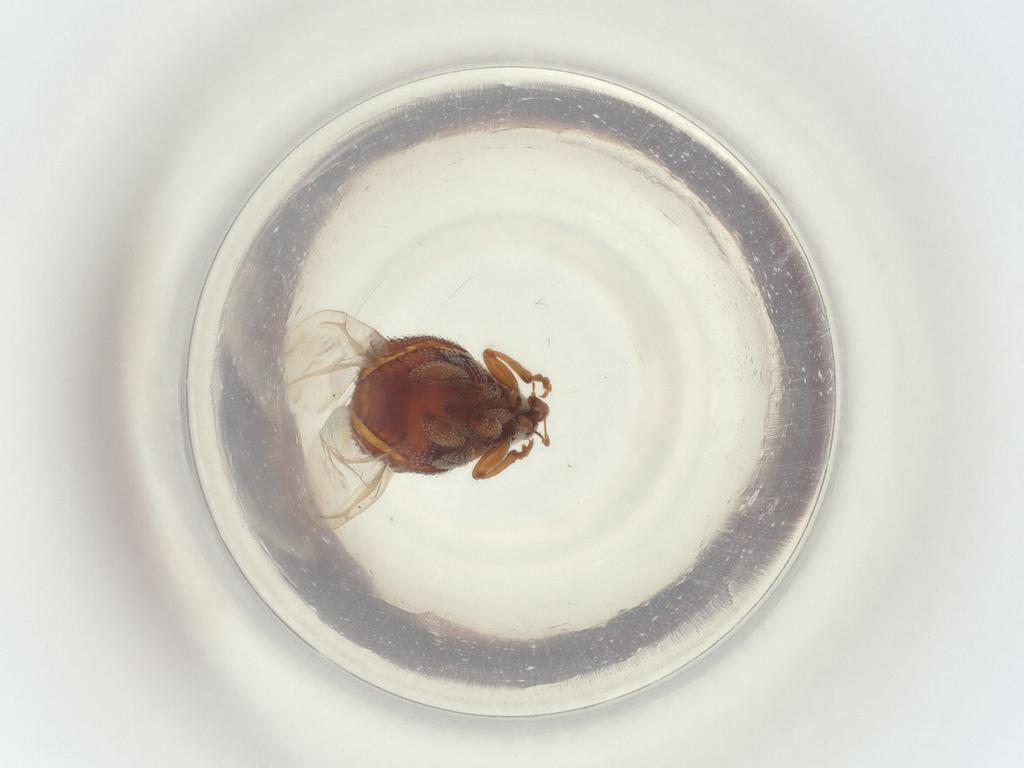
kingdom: Animalia
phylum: Arthropoda
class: Insecta
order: Coleoptera
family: Curculionidae
